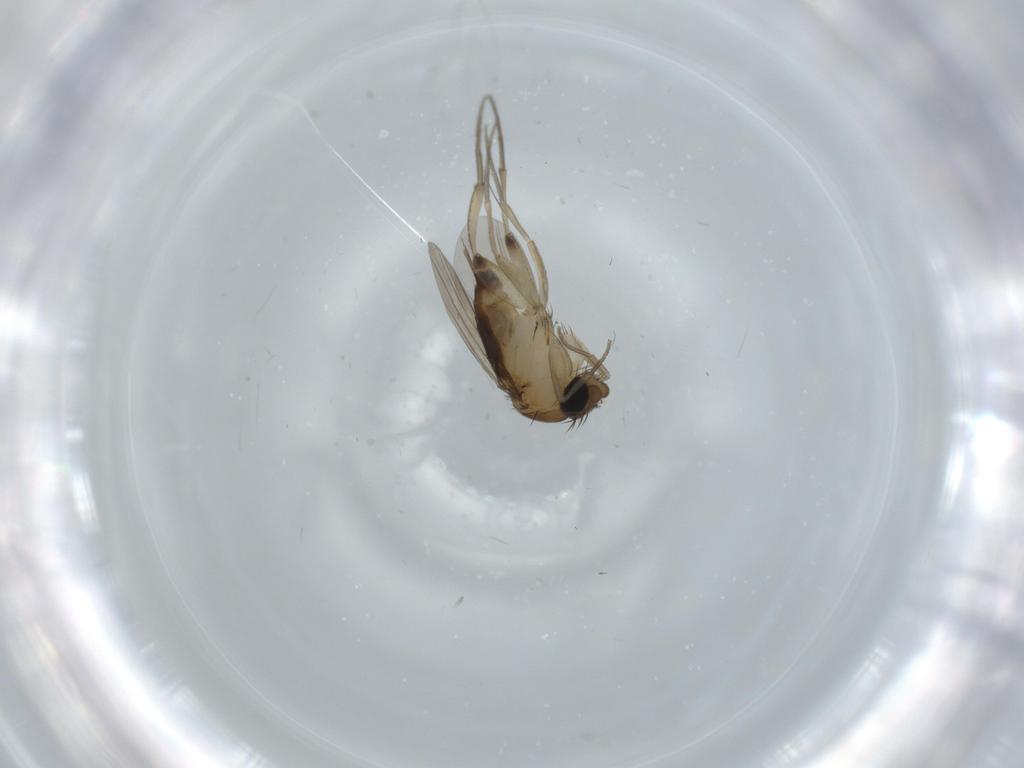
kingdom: Animalia
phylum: Arthropoda
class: Insecta
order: Diptera
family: Phoridae
